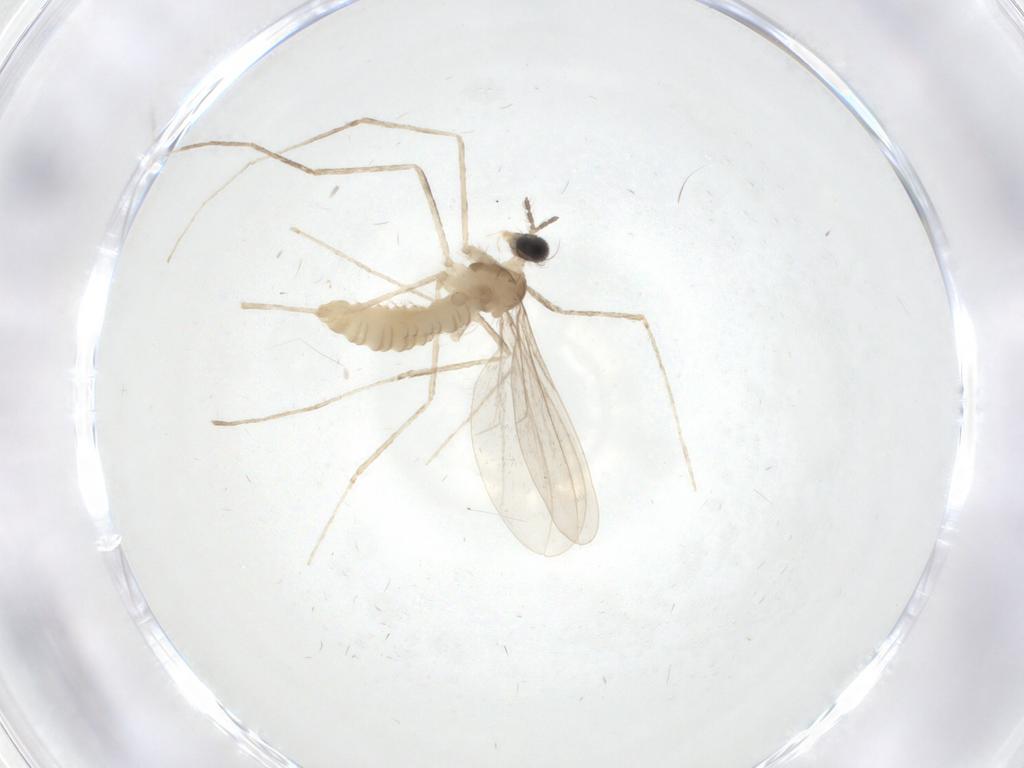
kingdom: Animalia
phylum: Arthropoda
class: Insecta
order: Diptera
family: Cecidomyiidae
